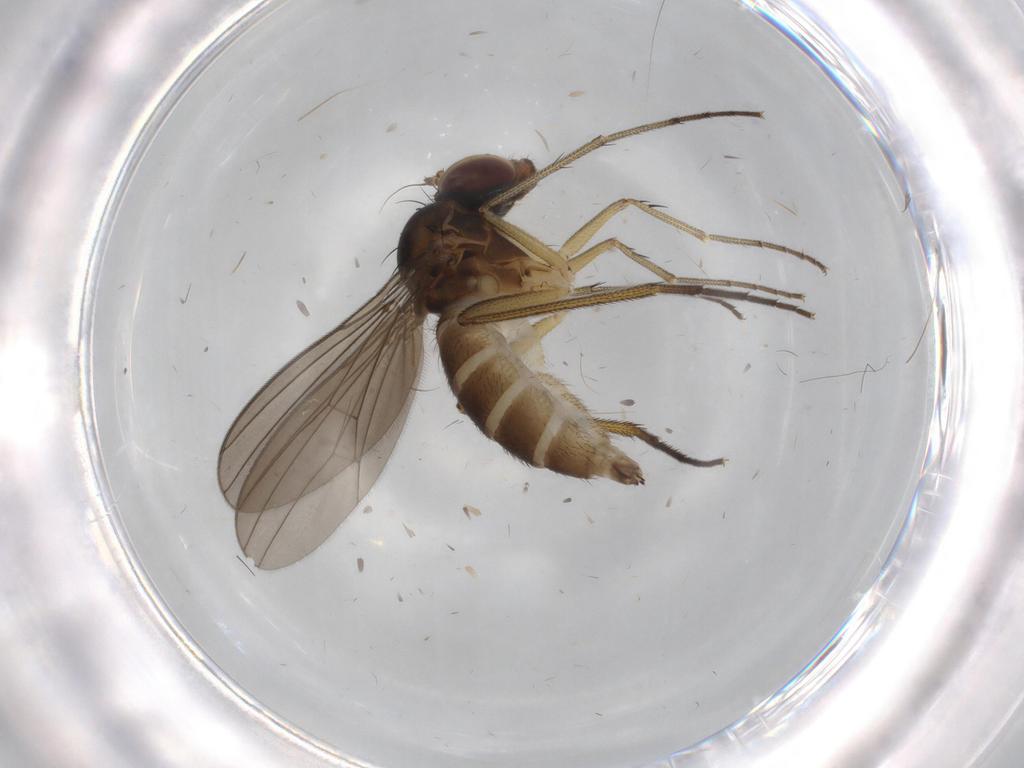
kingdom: Animalia
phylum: Arthropoda
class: Insecta
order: Diptera
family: Dolichopodidae
